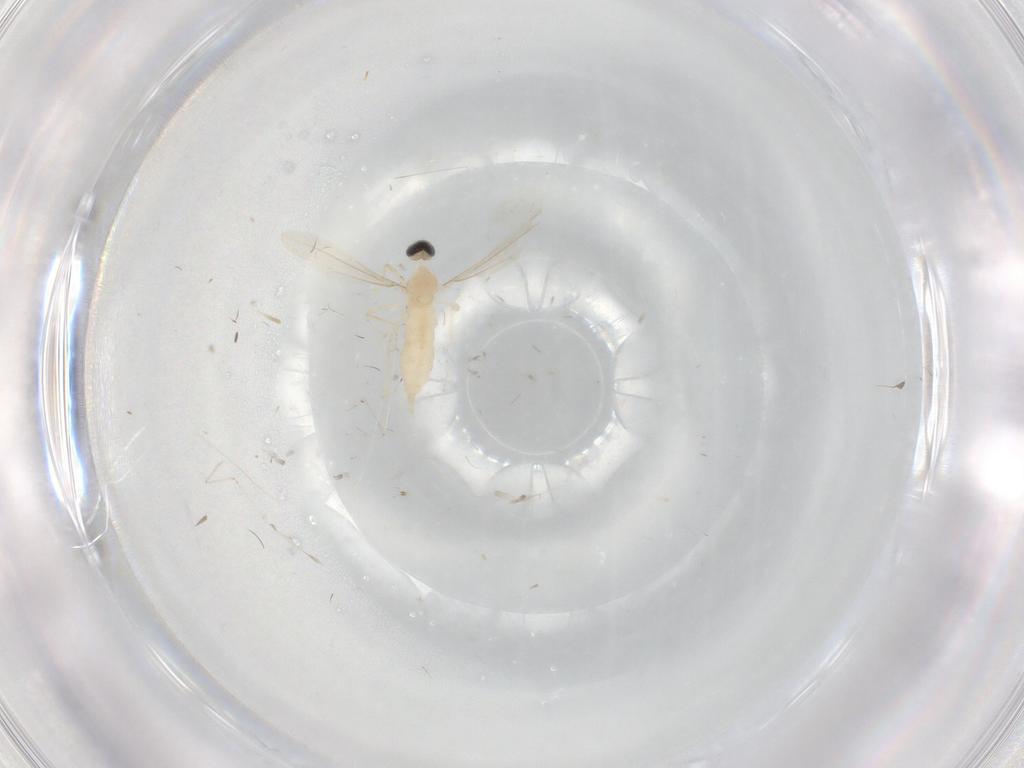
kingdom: Animalia
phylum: Arthropoda
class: Insecta
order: Diptera
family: Cecidomyiidae
